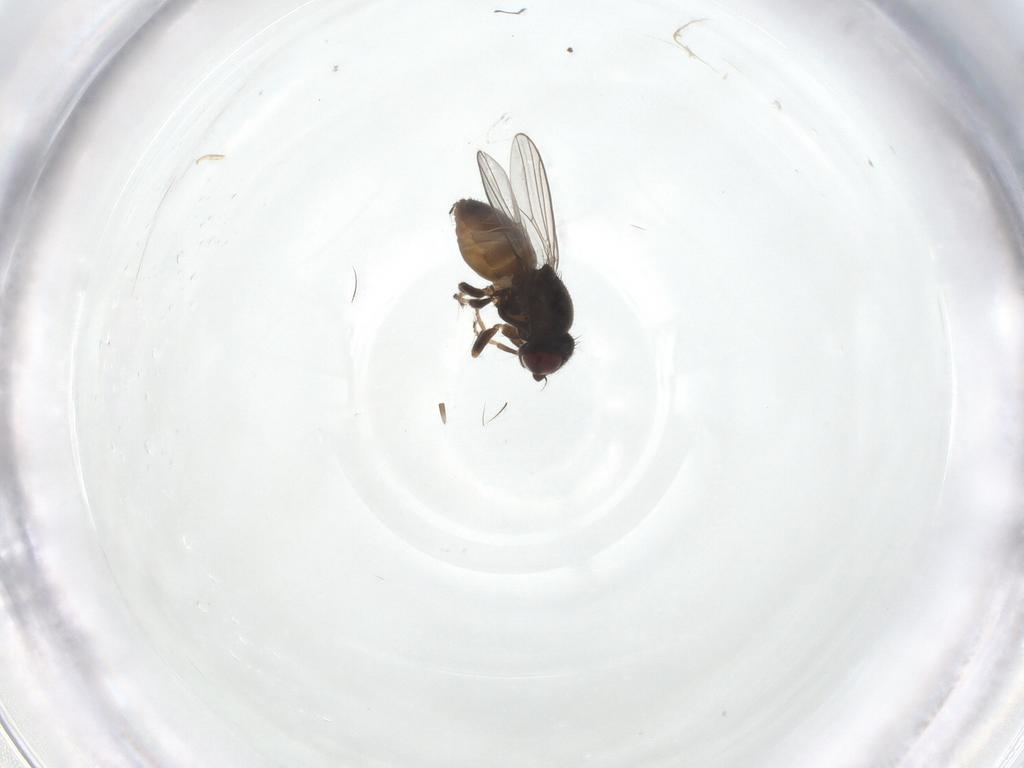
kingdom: Animalia
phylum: Arthropoda
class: Insecta
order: Diptera
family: Chloropidae
